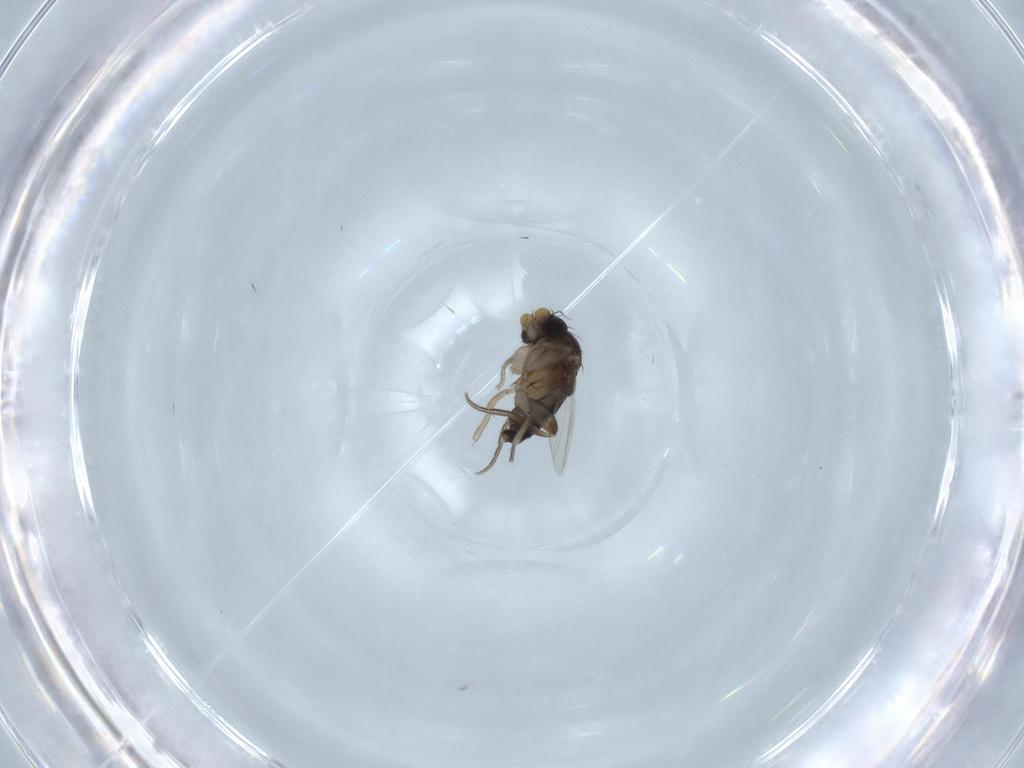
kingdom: Animalia
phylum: Arthropoda
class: Insecta
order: Diptera
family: Phoridae
